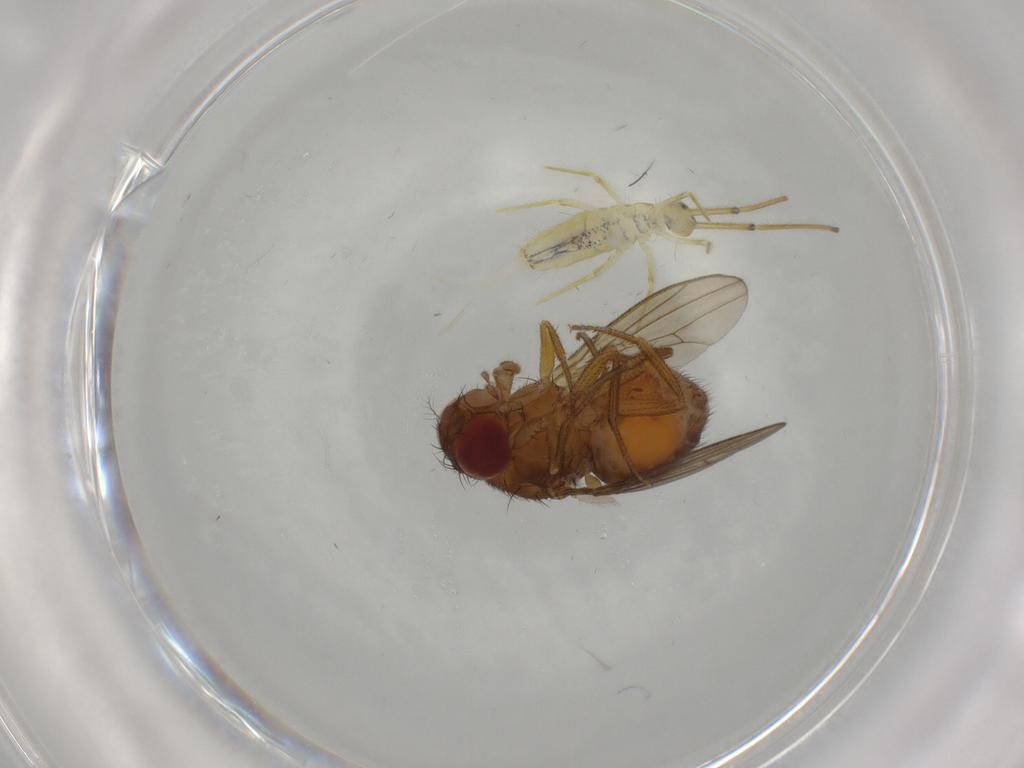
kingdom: Animalia
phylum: Arthropoda
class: Insecta
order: Diptera
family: Drosophilidae
